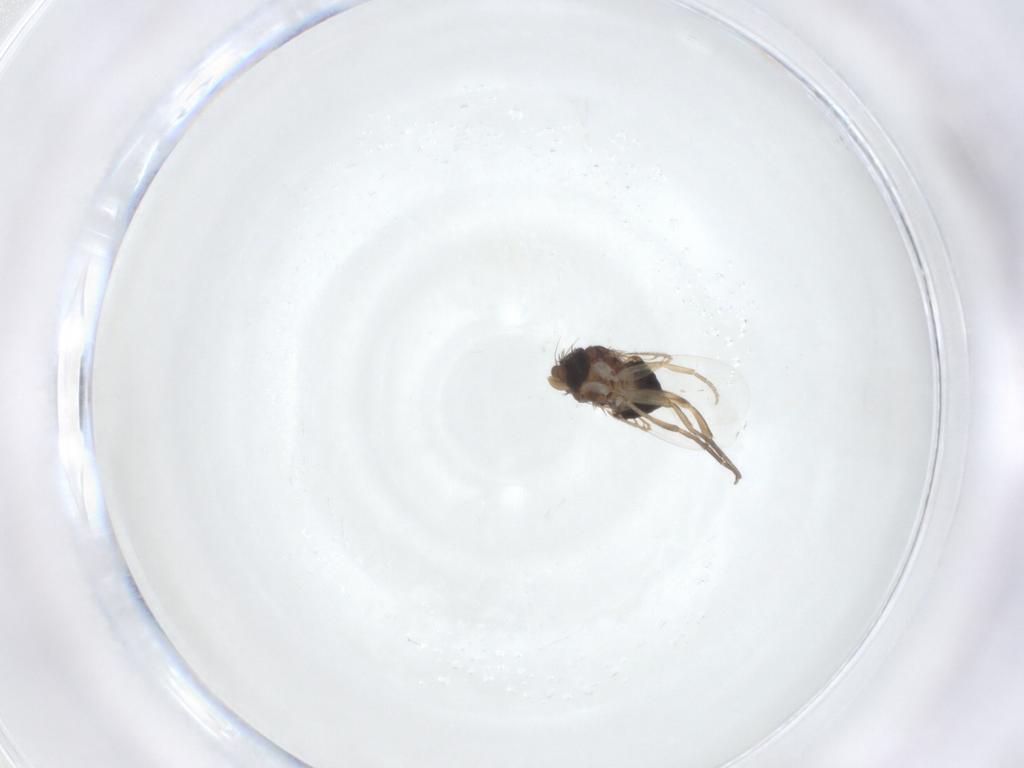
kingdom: Animalia
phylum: Arthropoda
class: Insecta
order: Diptera
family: Phoridae
